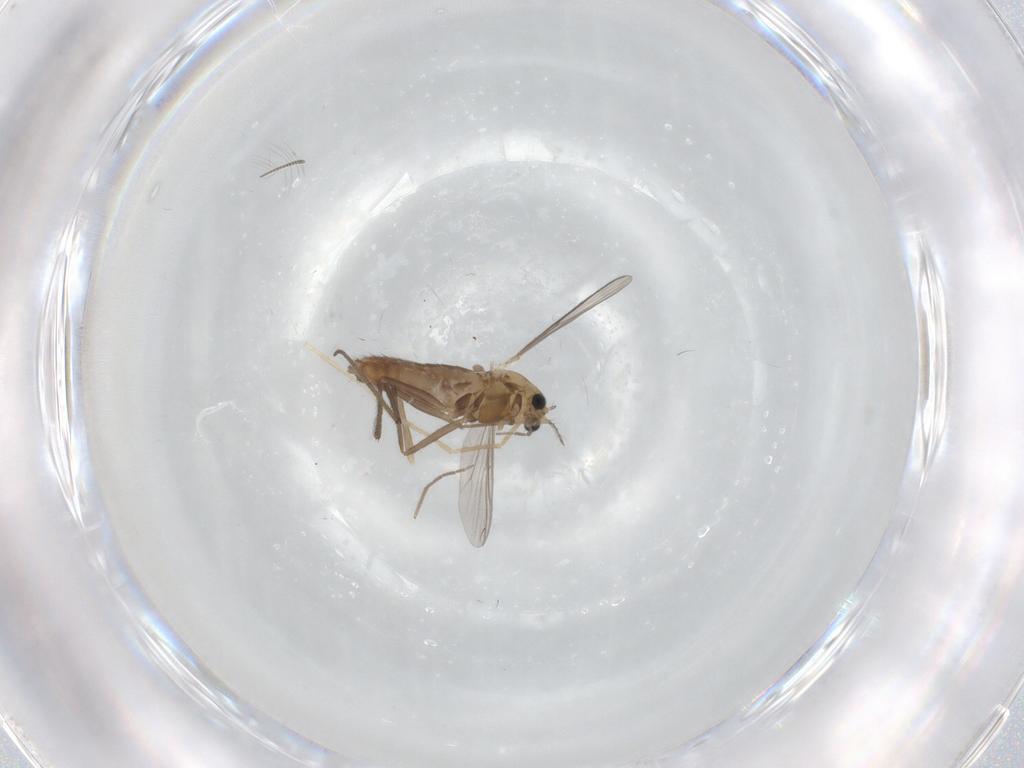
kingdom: Animalia
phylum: Arthropoda
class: Insecta
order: Diptera
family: Chironomidae
